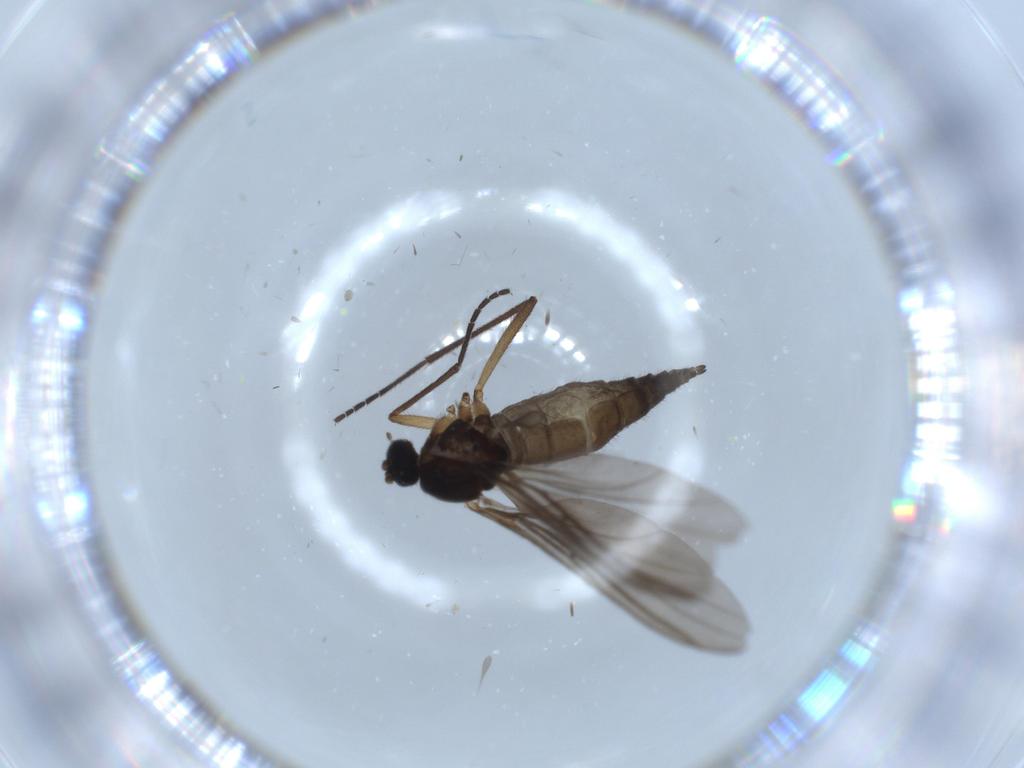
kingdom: Animalia
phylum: Arthropoda
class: Insecta
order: Diptera
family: Sciaridae
